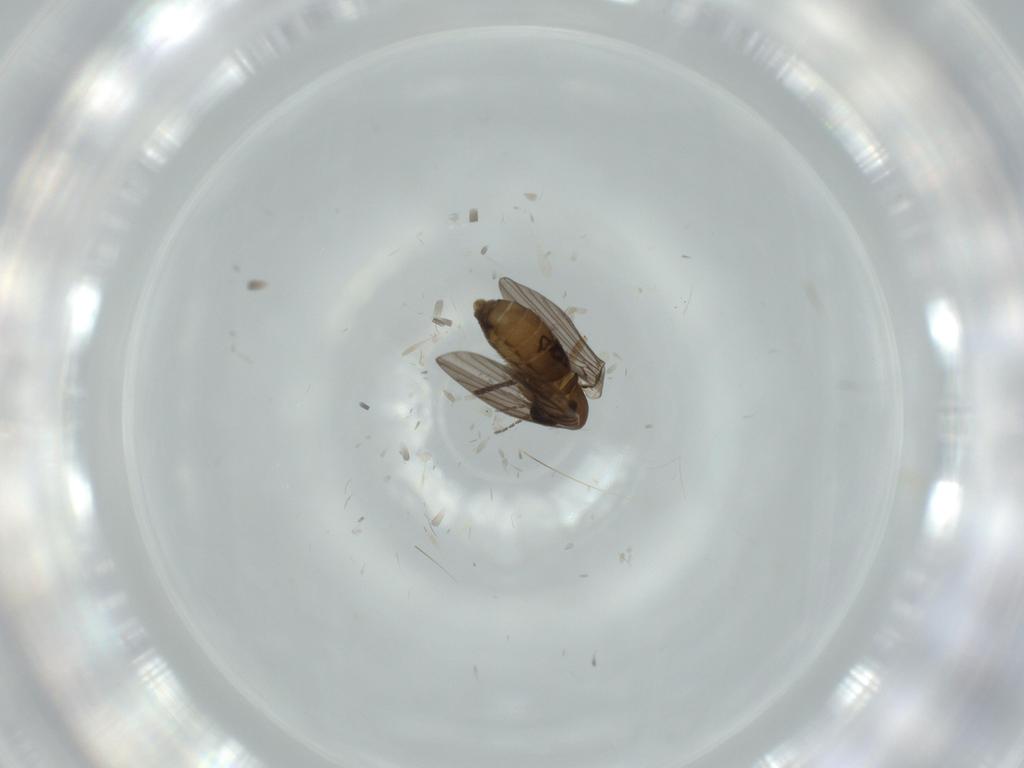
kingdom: Animalia
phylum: Arthropoda
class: Insecta
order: Diptera
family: Psychodidae
